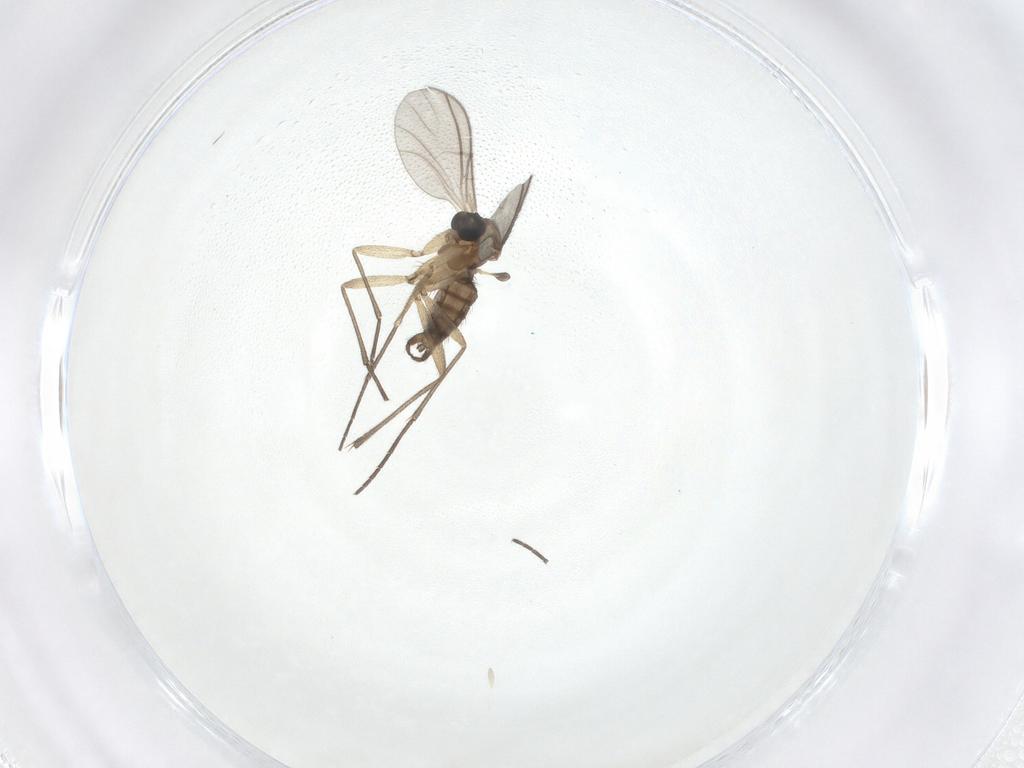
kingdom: Animalia
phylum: Arthropoda
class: Insecta
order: Diptera
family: Sciaridae
